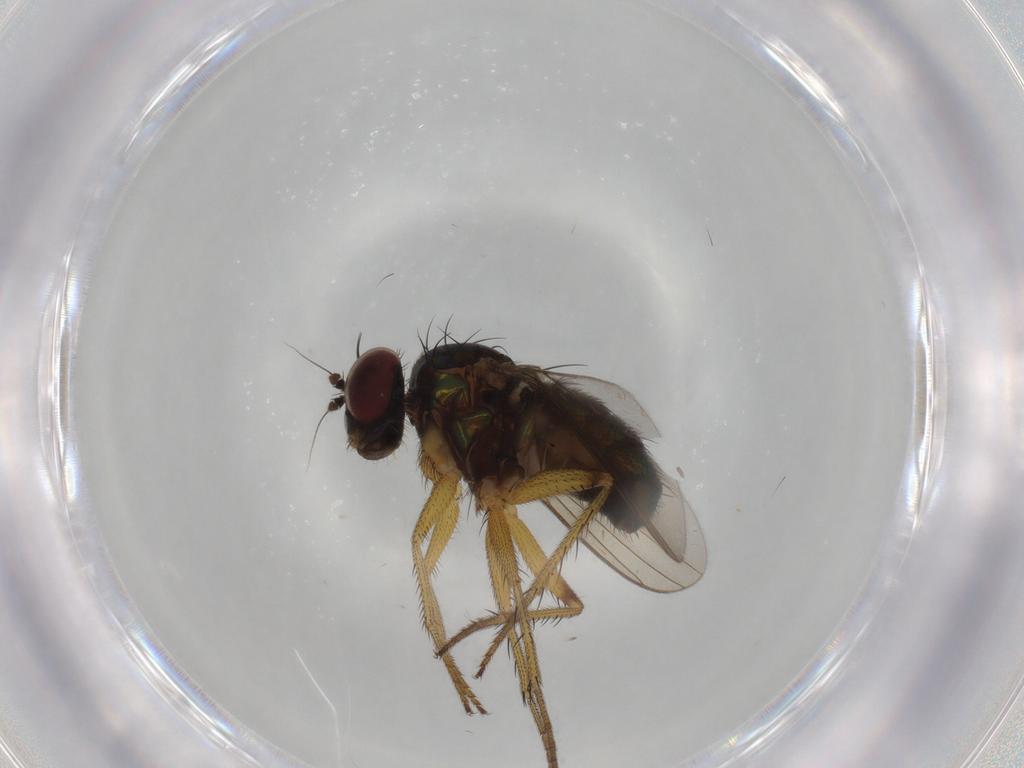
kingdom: Animalia
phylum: Arthropoda
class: Insecta
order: Diptera
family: Dolichopodidae
